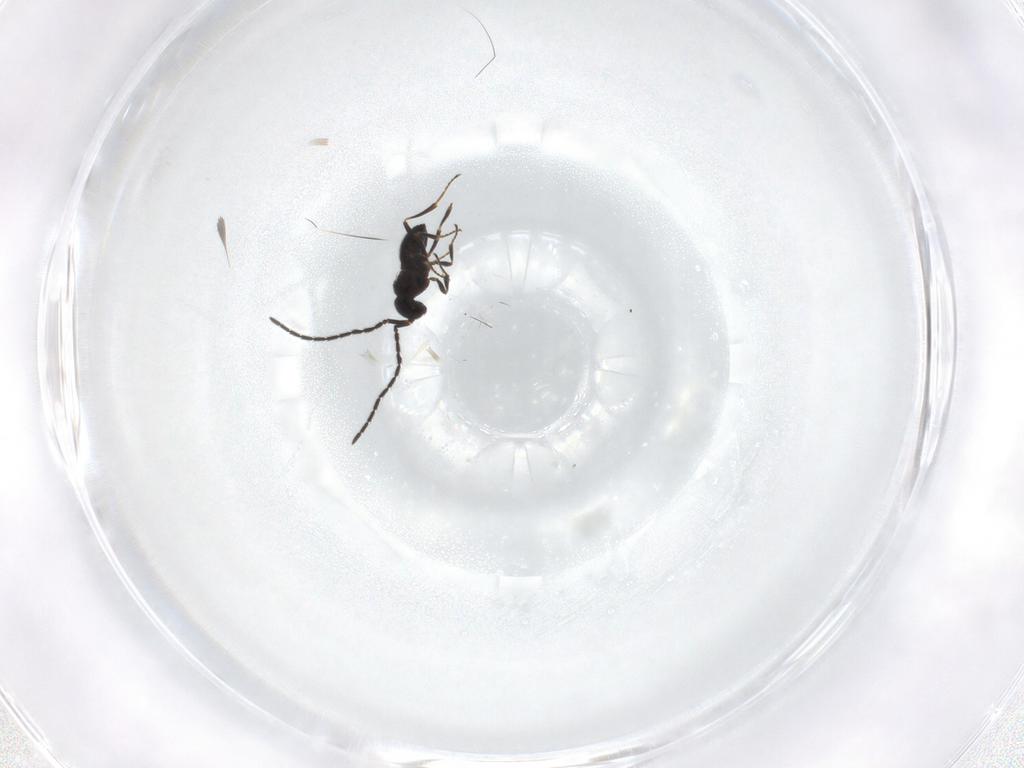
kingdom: Animalia
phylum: Arthropoda
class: Insecta
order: Hymenoptera
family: Scelionidae
